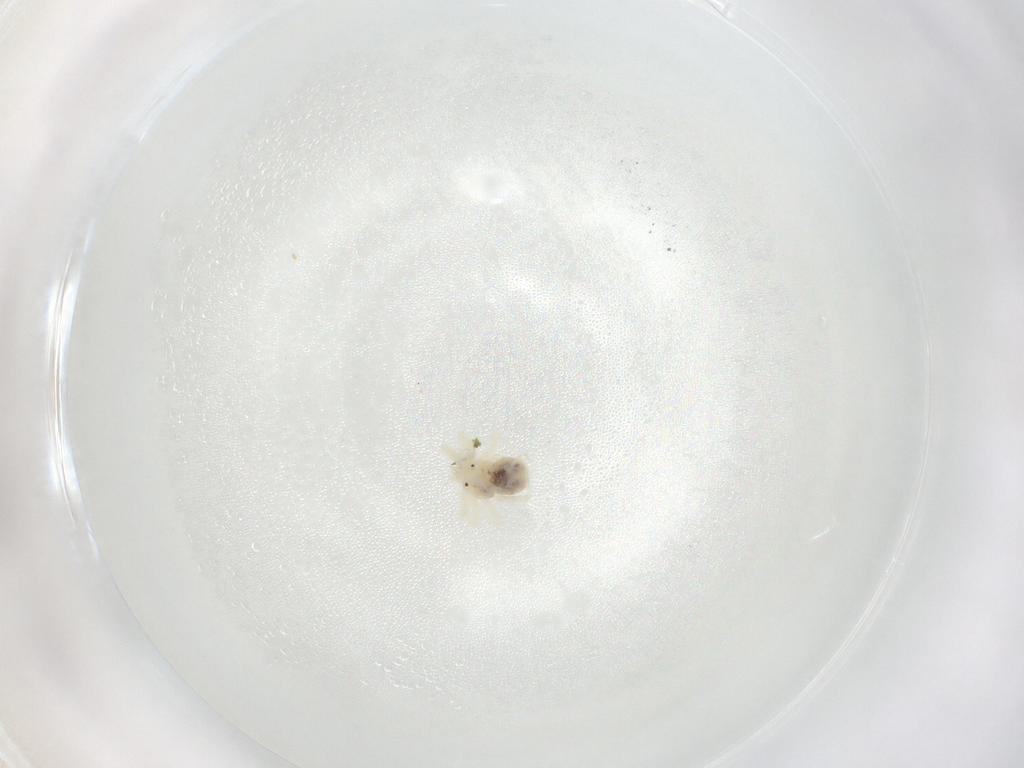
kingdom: Animalia
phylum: Arthropoda
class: Arachnida
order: Trombidiformes
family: Anystidae
